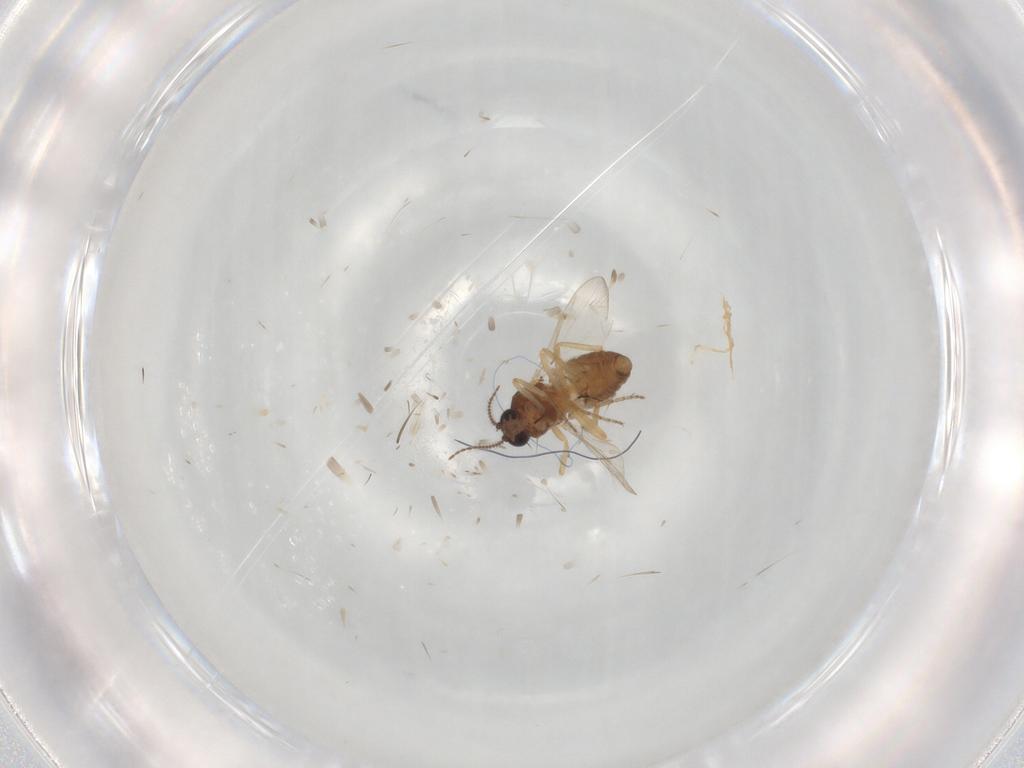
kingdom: Animalia
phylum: Arthropoda
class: Insecta
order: Diptera
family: Ceratopogonidae
